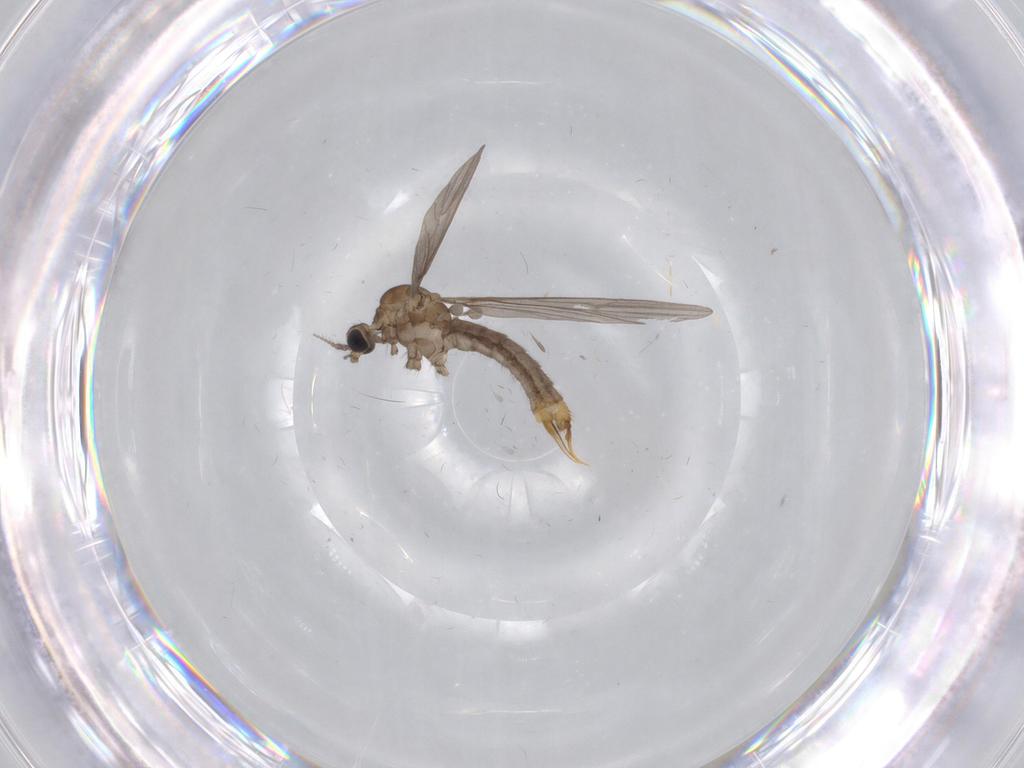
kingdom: Animalia
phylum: Arthropoda
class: Insecta
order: Diptera
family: Limoniidae
